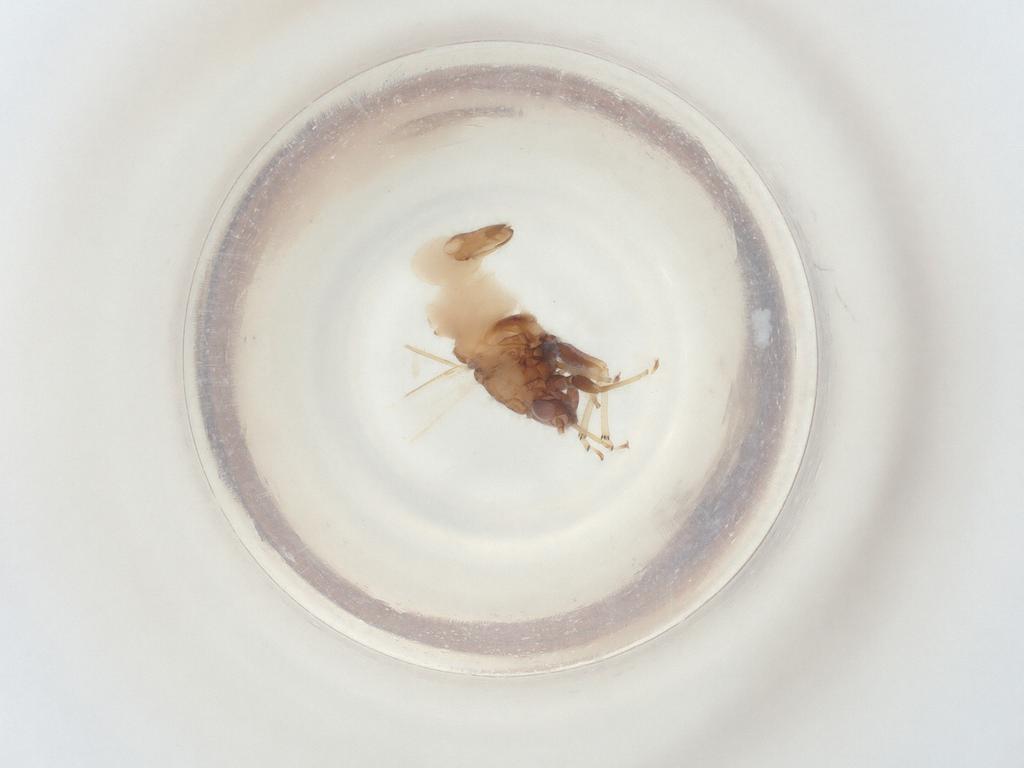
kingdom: Animalia
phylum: Arthropoda
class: Insecta
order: Hemiptera
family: Psyllidae
